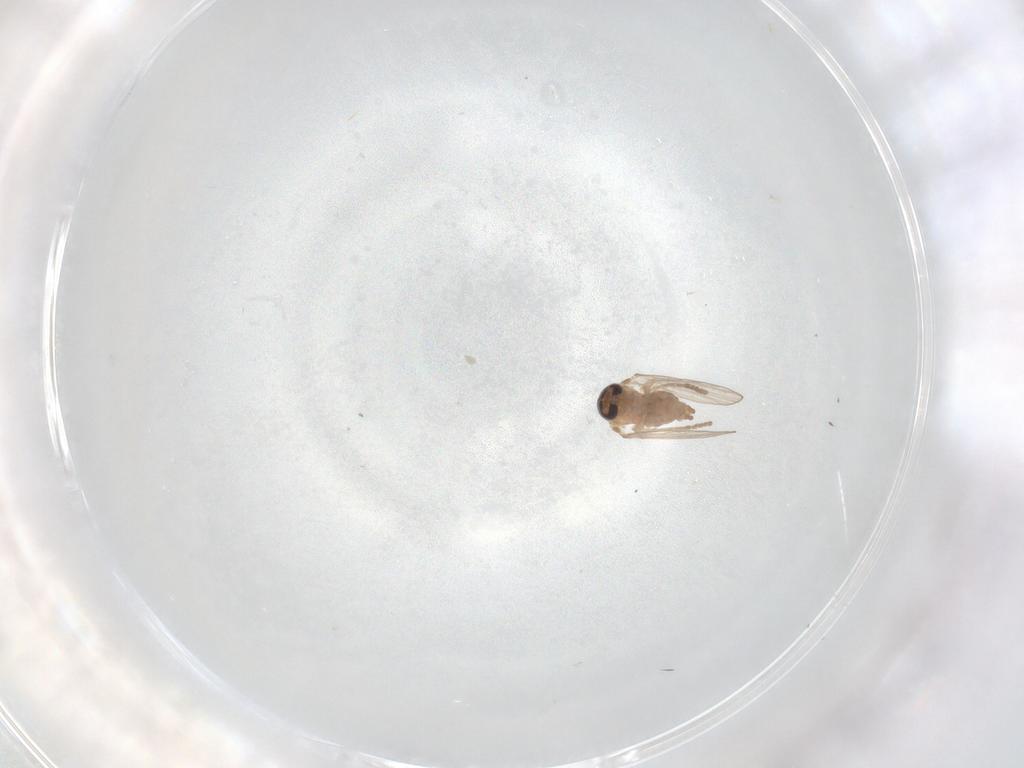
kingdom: Animalia
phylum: Arthropoda
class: Insecta
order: Diptera
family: Psychodidae
